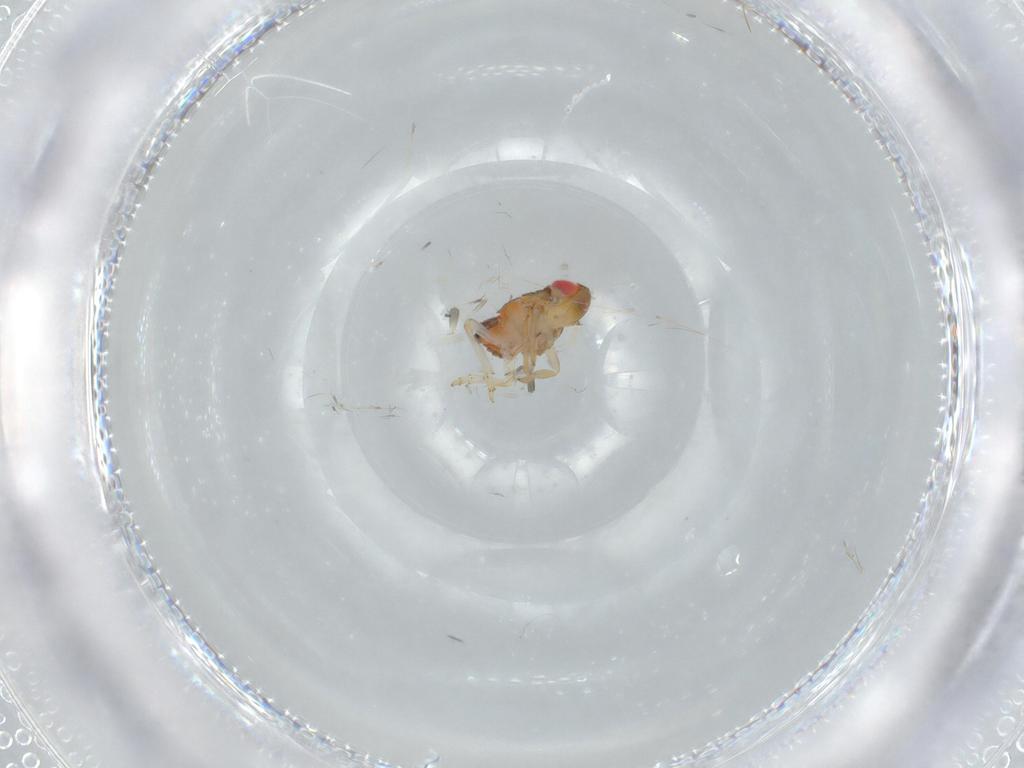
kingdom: Animalia
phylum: Arthropoda
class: Insecta
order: Hemiptera
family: Issidae
